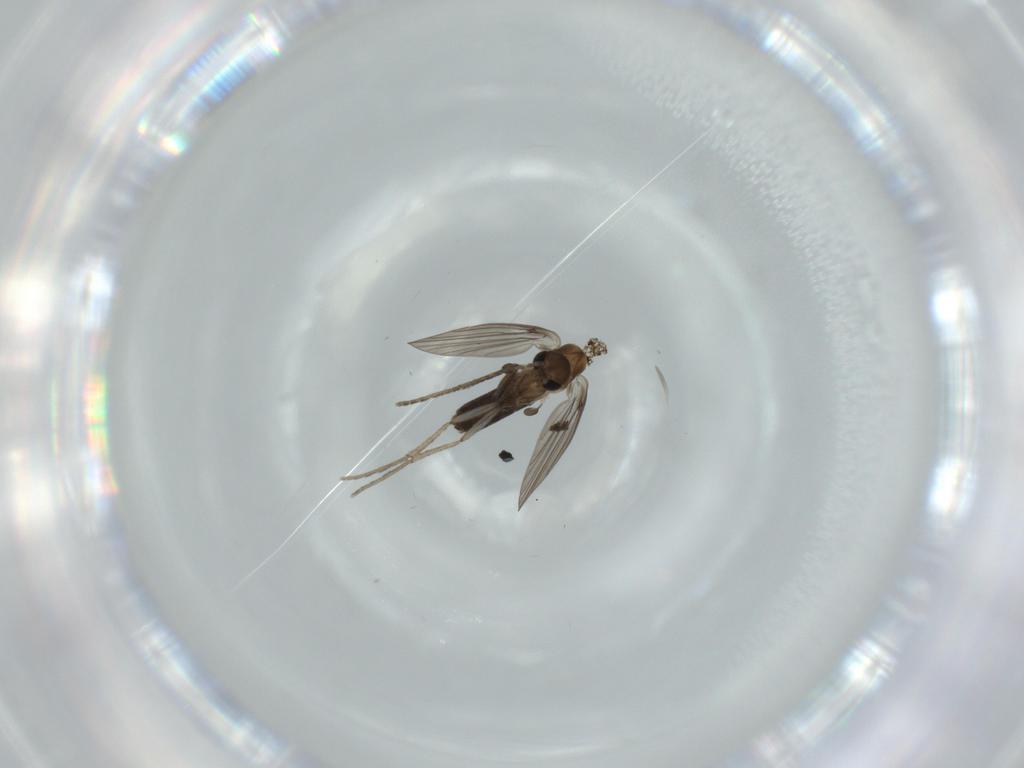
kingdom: Animalia
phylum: Arthropoda
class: Insecta
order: Diptera
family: Psychodidae
